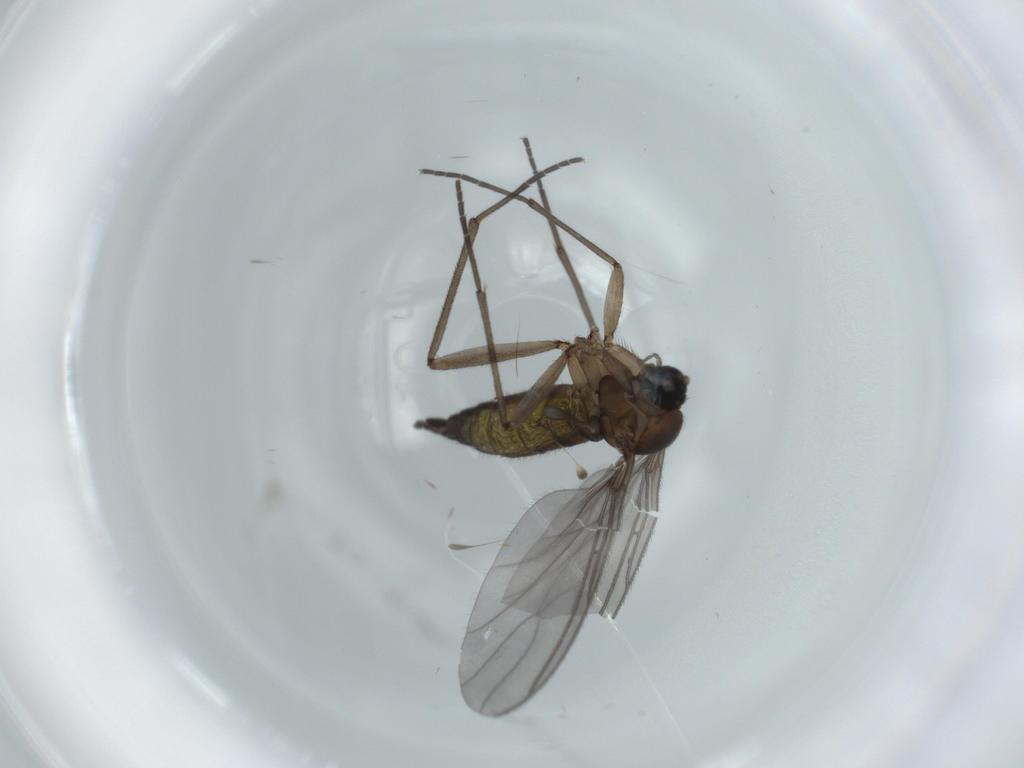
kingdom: Animalia
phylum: Arthropoda
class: Insecta
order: Diptera
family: Sciaridae
